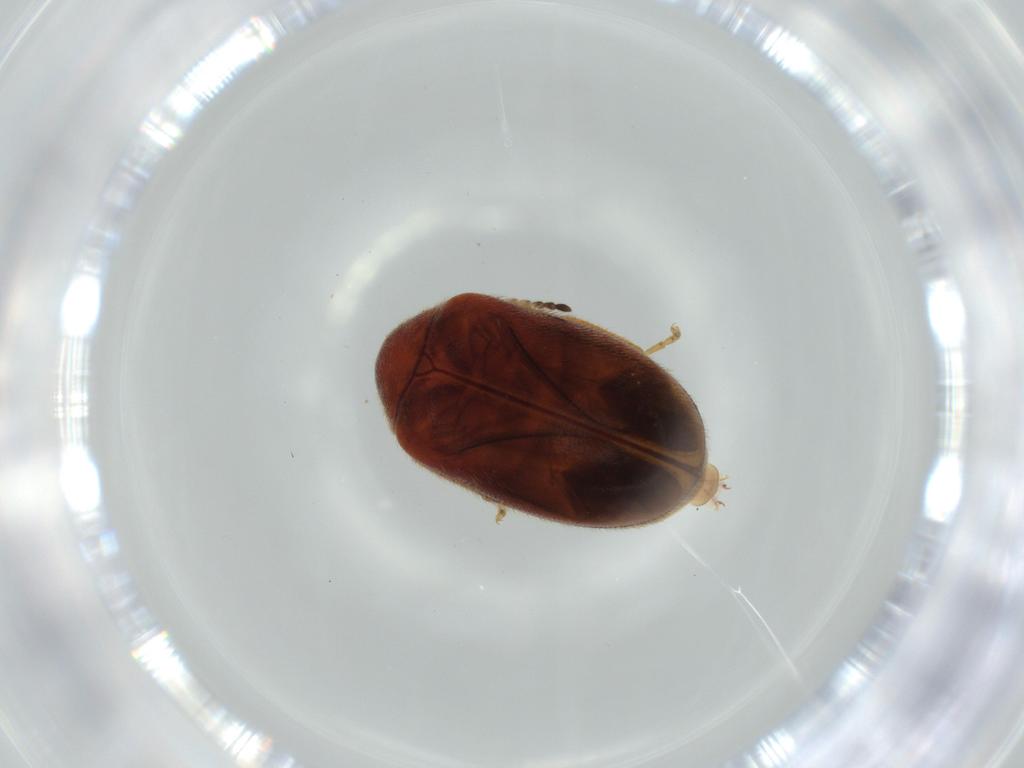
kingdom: Animalia
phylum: Arthropoda
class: Insecta
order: Coleoptera
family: Scirtidae
